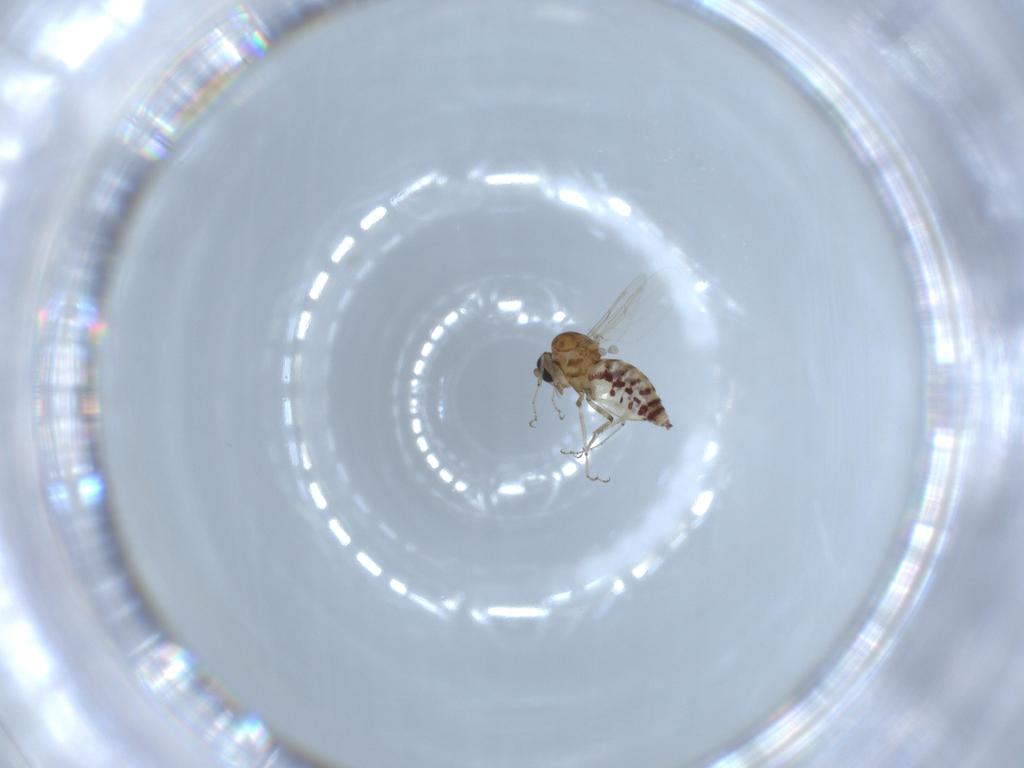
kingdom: Animalia
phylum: Arthropoda
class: Insecta
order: Diptera
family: Ceratopogonidae
